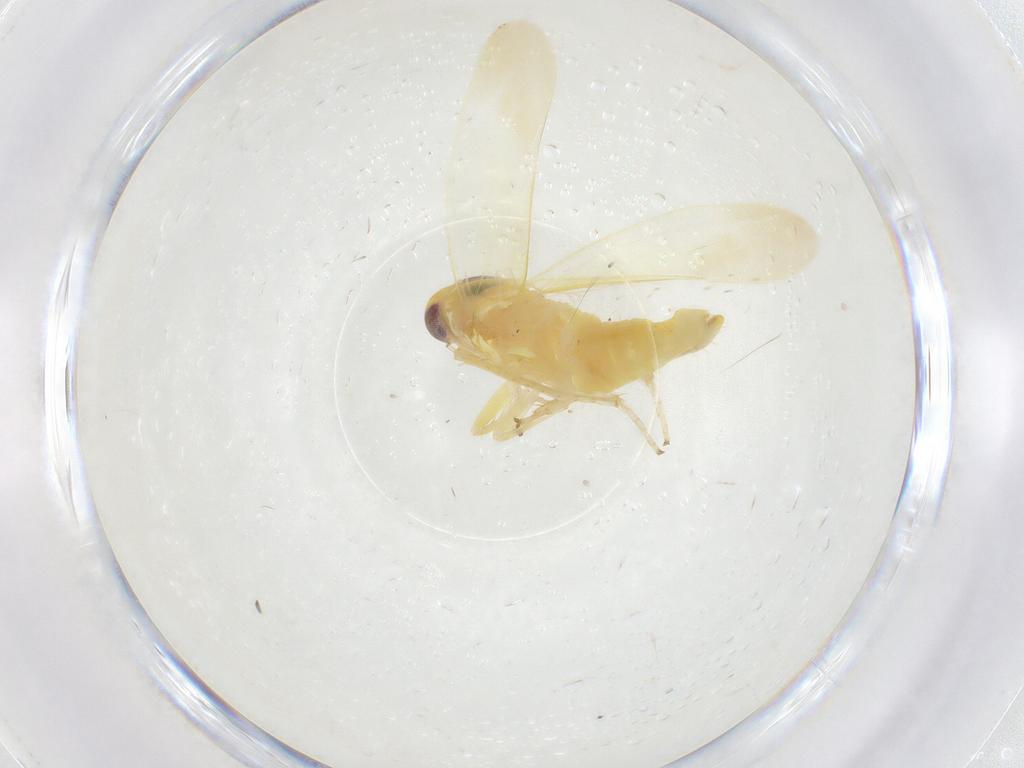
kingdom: Animalia
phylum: Arthropoda
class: Insecta
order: Hemiptera
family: Cicadellidae
